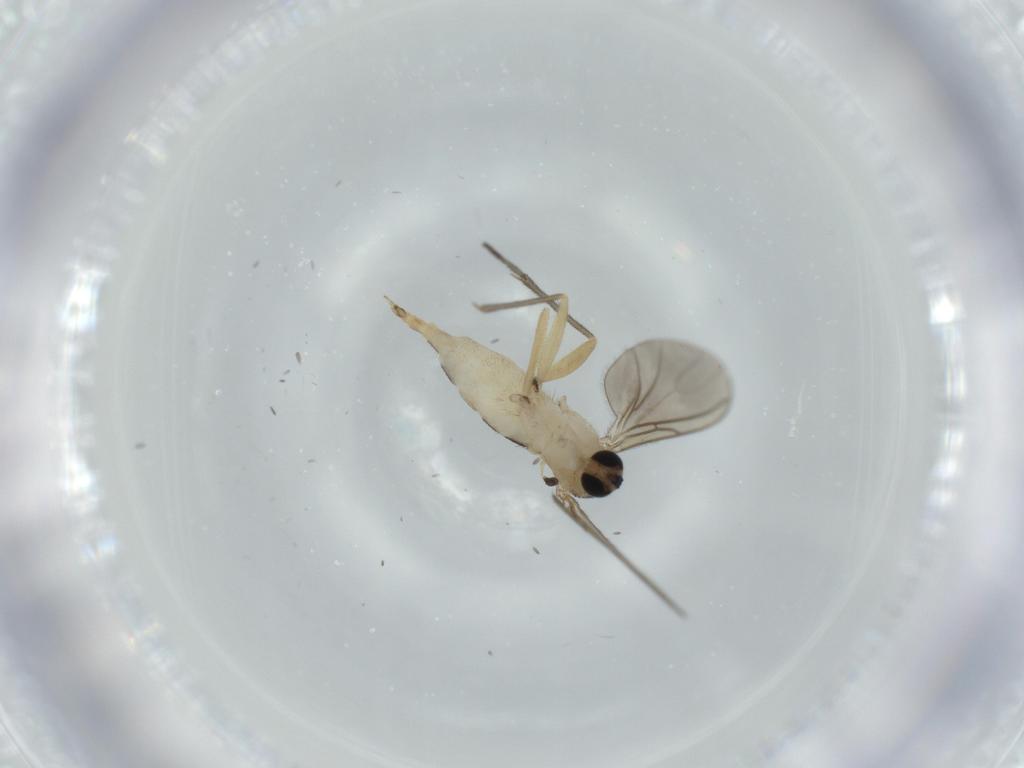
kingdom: Animalia
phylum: Arthropoda
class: Insecta
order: Diptera
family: Sciaridae
